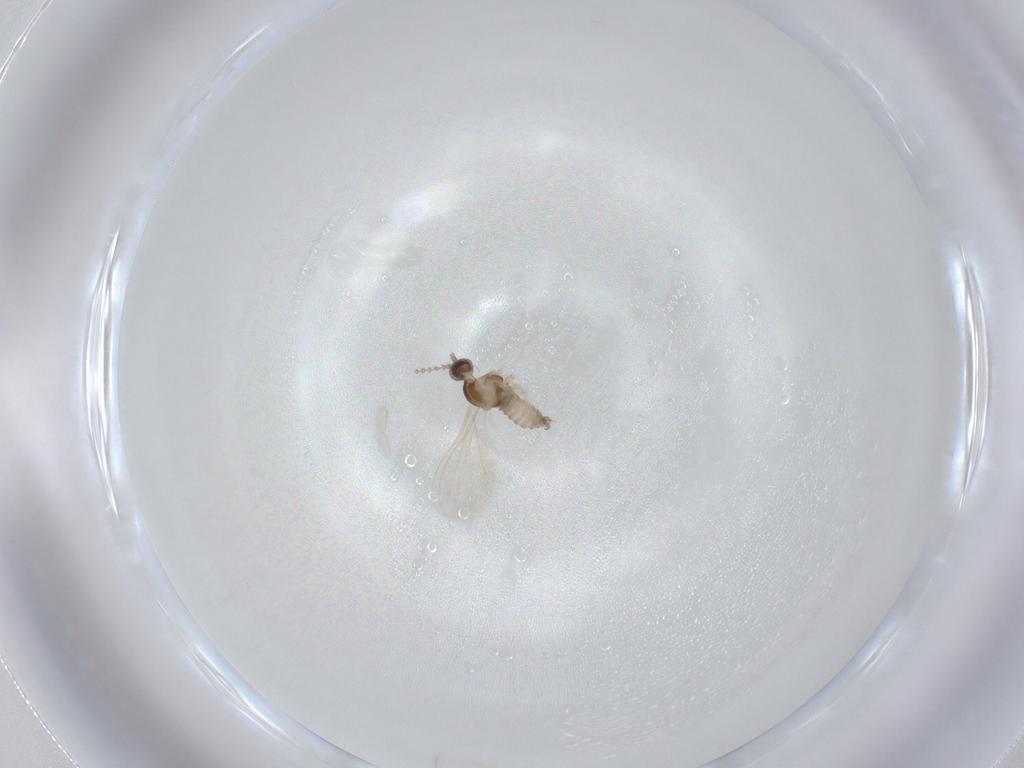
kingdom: Animalia
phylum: Arthropoda
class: Insecta
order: Diptera
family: Cecidomyiidae
